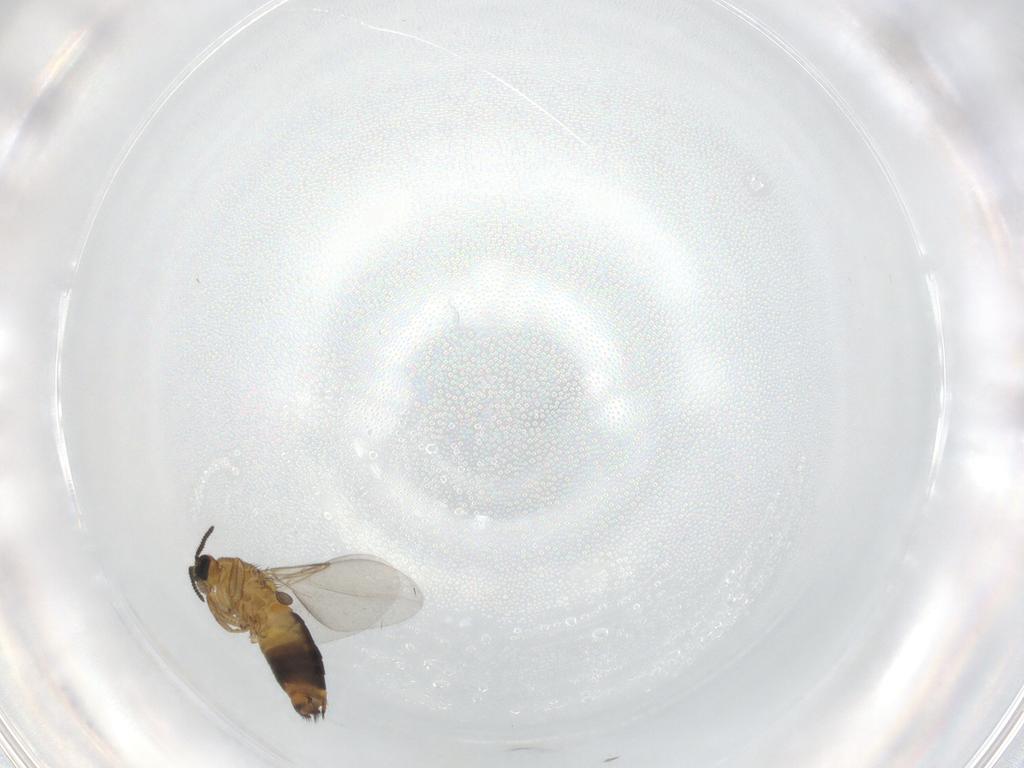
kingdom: Animalia
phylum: Arthropoda
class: Insecta
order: Diptera
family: Scatopsidae
